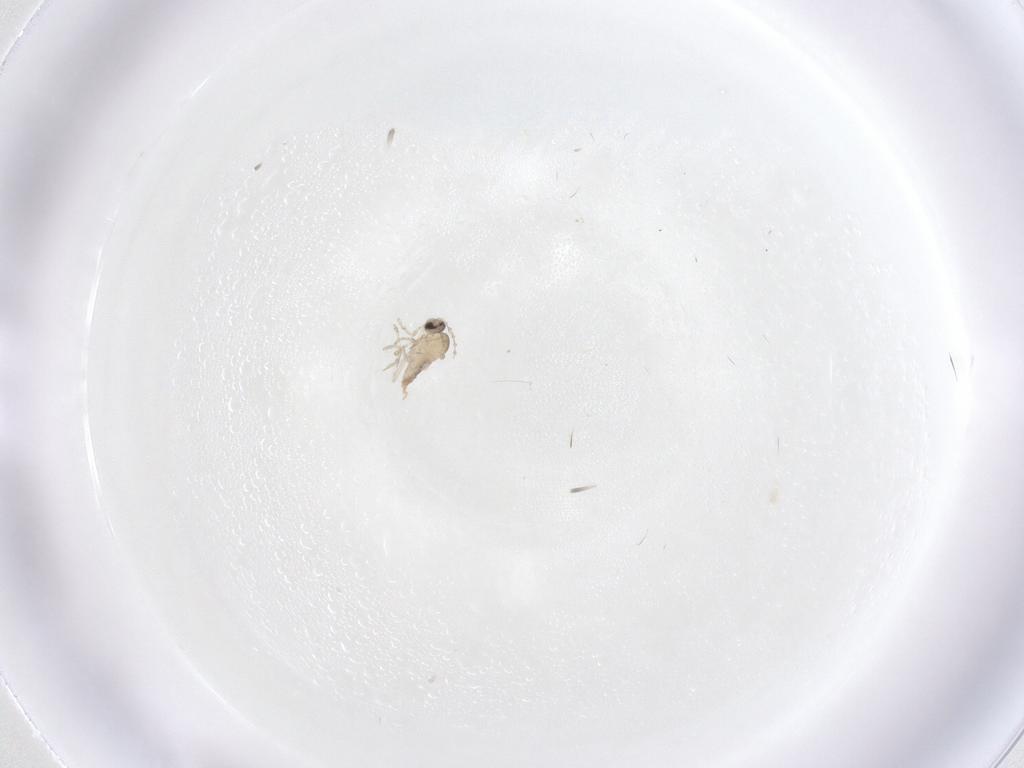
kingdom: Animalia
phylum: Arthropoda
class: Insecta
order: Diptera
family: Cecidomyiidae
